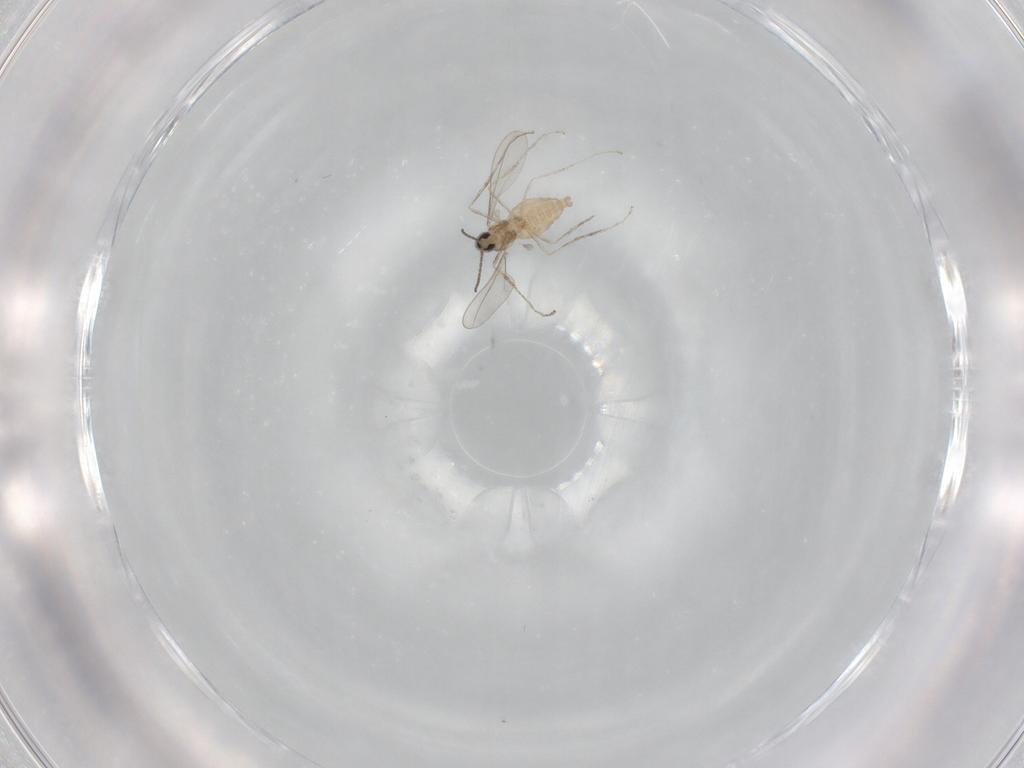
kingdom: Animalia
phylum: Arthropoda
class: Insecta
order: Diptera
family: Cecidomyiidae
